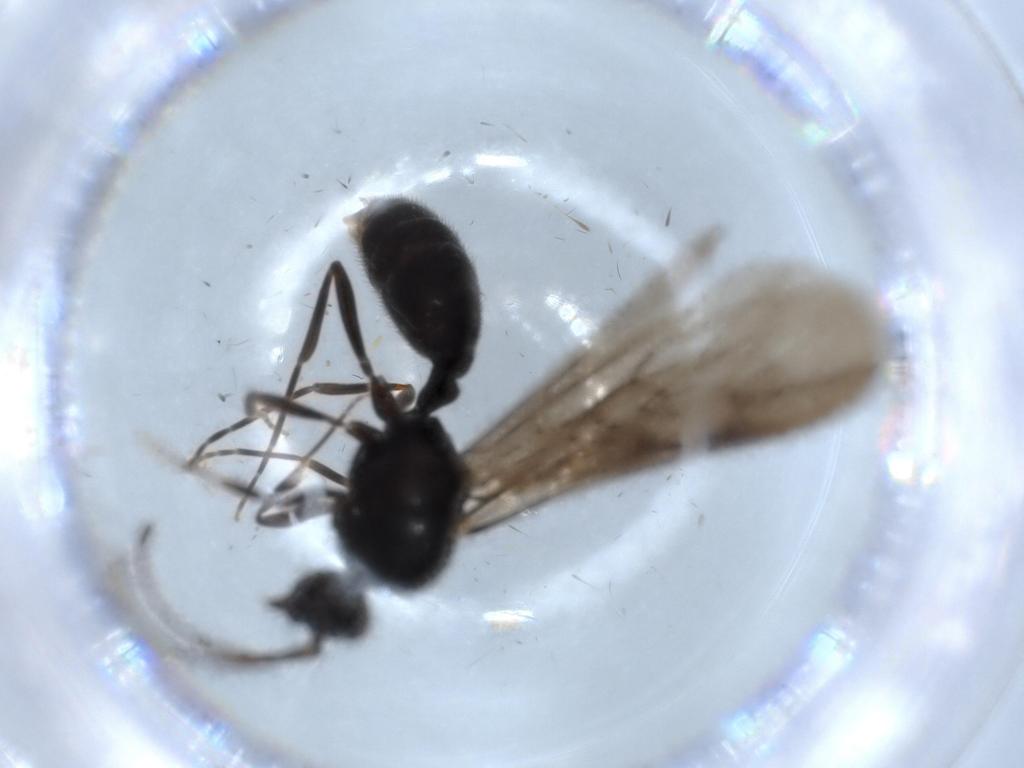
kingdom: Animalia
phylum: Arthropoda
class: Insecta
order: Hymenoptera
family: Formicidae
